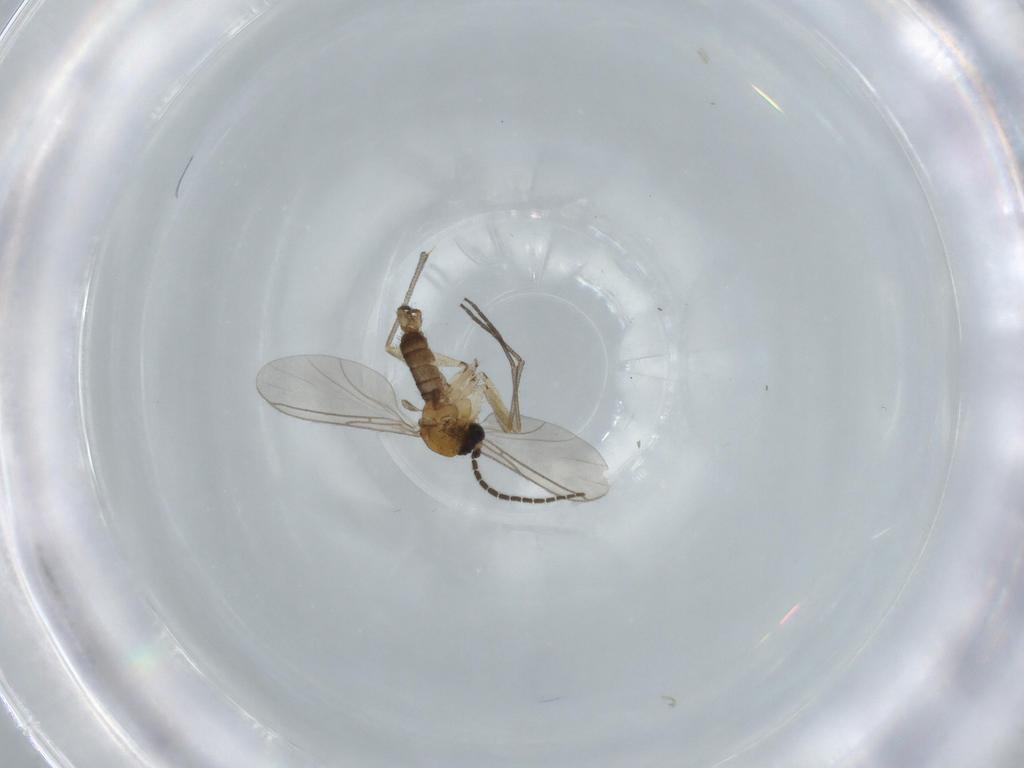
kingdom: Animalia
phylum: Arthropoda
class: Insecta
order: Diptera
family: Sciaridae
